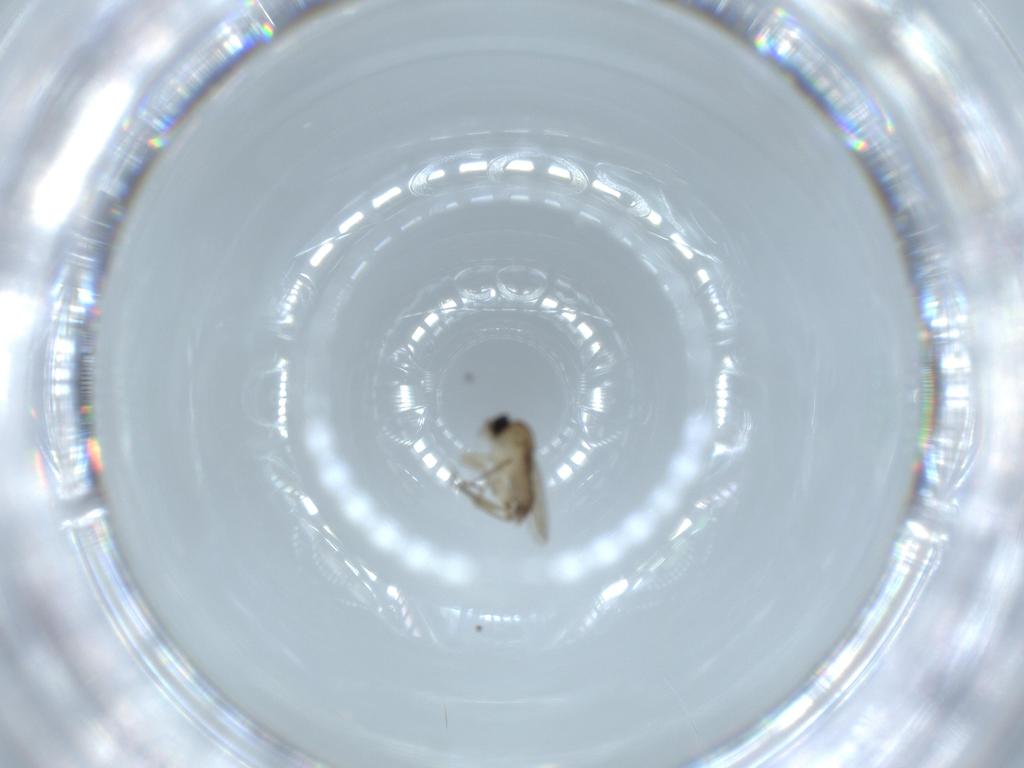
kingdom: Animalia
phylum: Arthropoda
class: Insecta
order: Diptera
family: Phoridae
